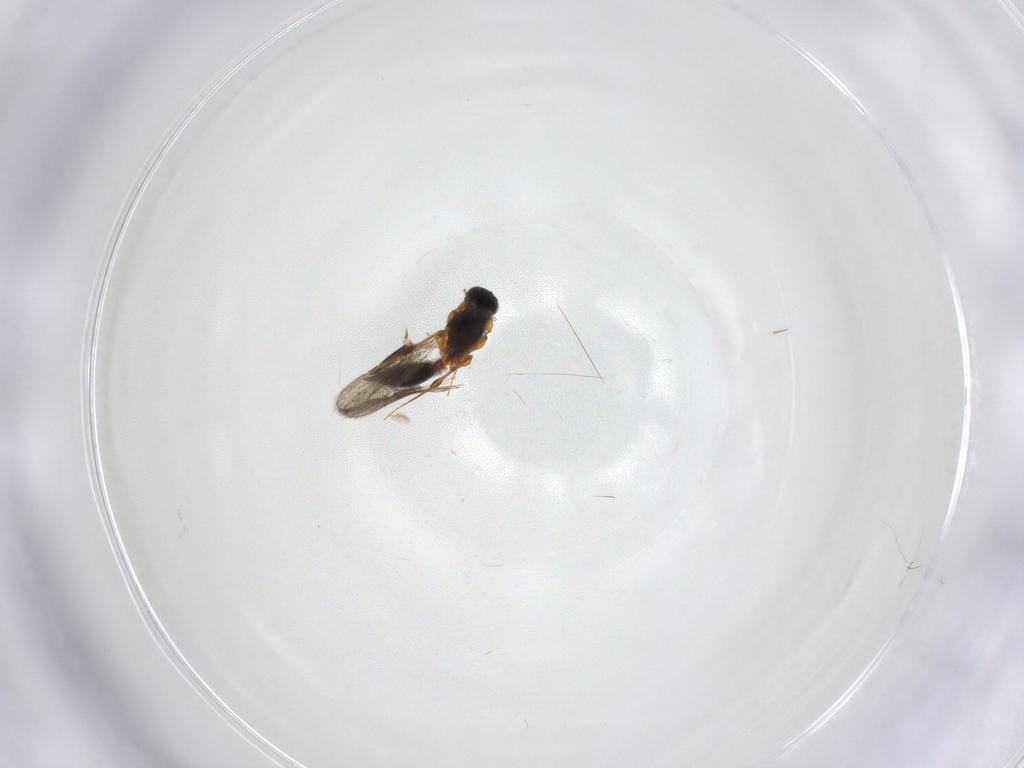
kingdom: Animalia
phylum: Arthropoda
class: Insecta
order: Hymenoptera
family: Platygastridae
